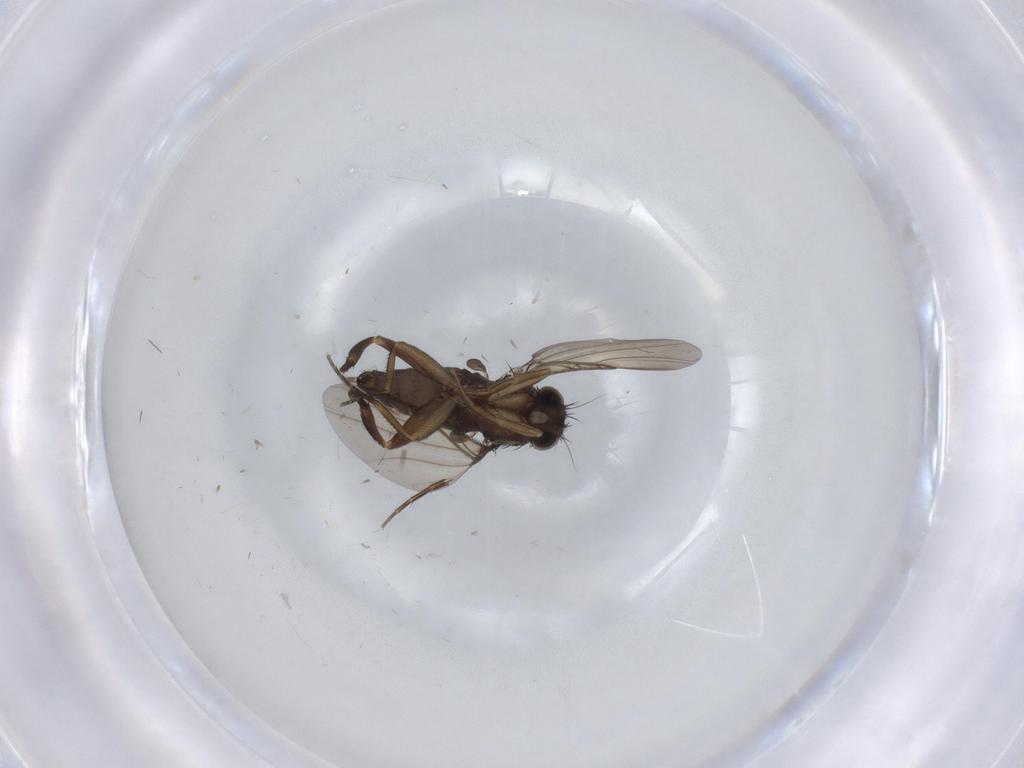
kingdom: Animalia
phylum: Arthropoda
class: Insecta
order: Diptera
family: Phoridae
